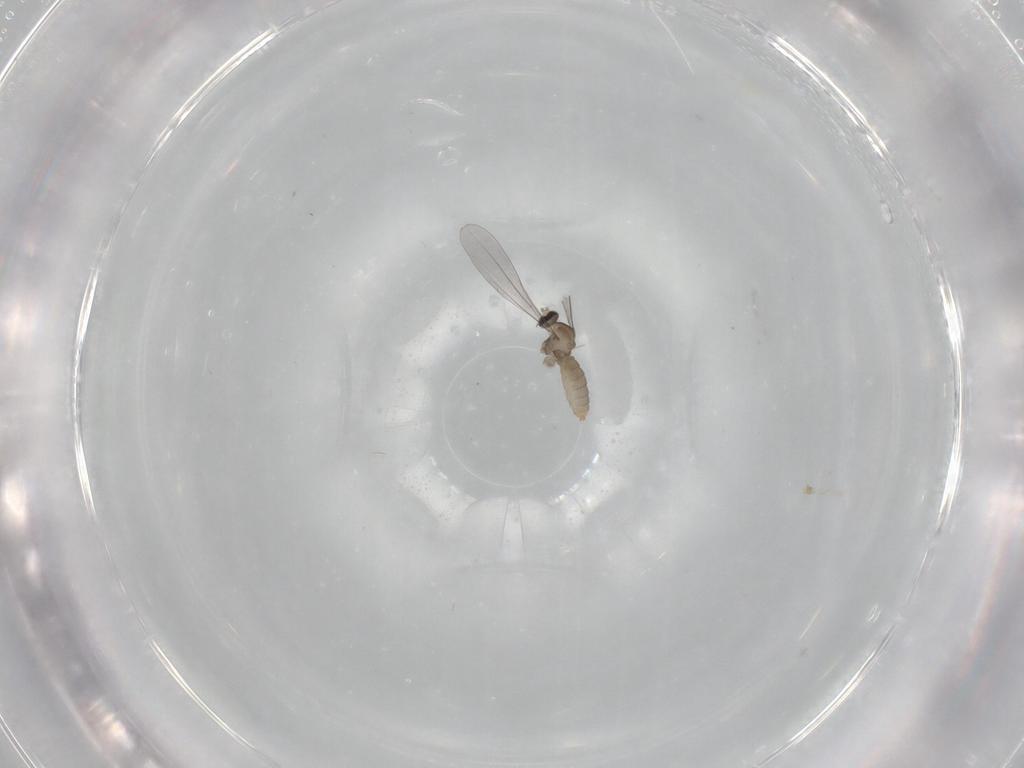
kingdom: Animalia
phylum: Arthropoda
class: Insecta
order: Diptera
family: Cecidomyiidae
